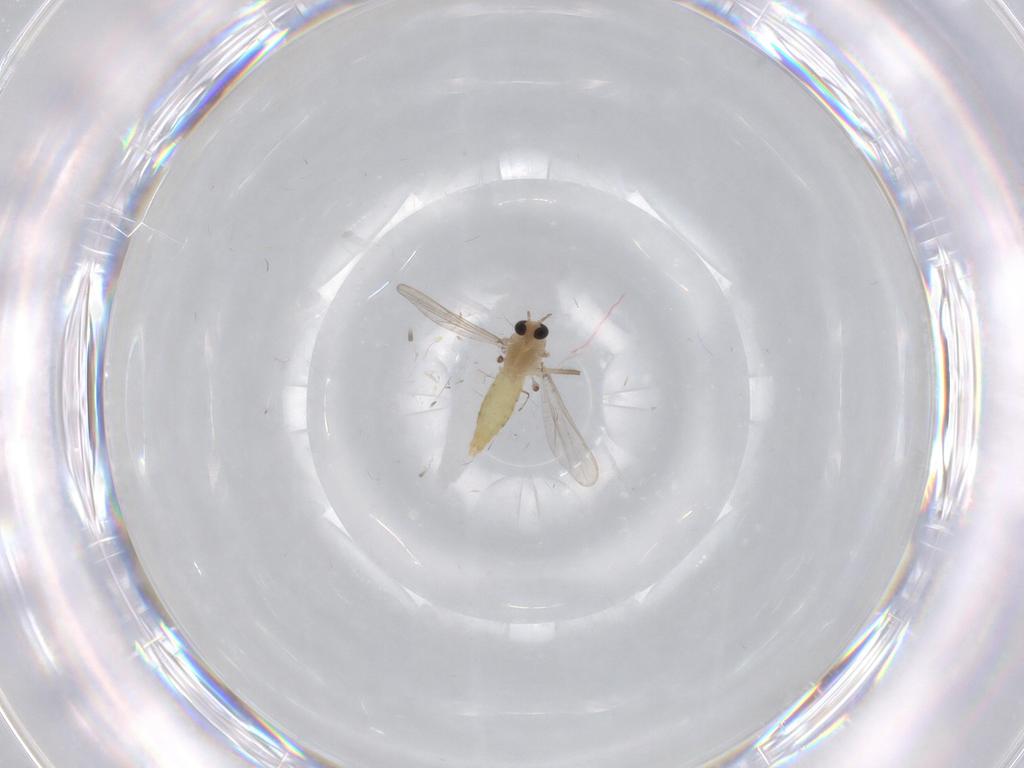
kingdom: Animalia
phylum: Arthropoda
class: Insecta
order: Diptera
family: Chironomidae
